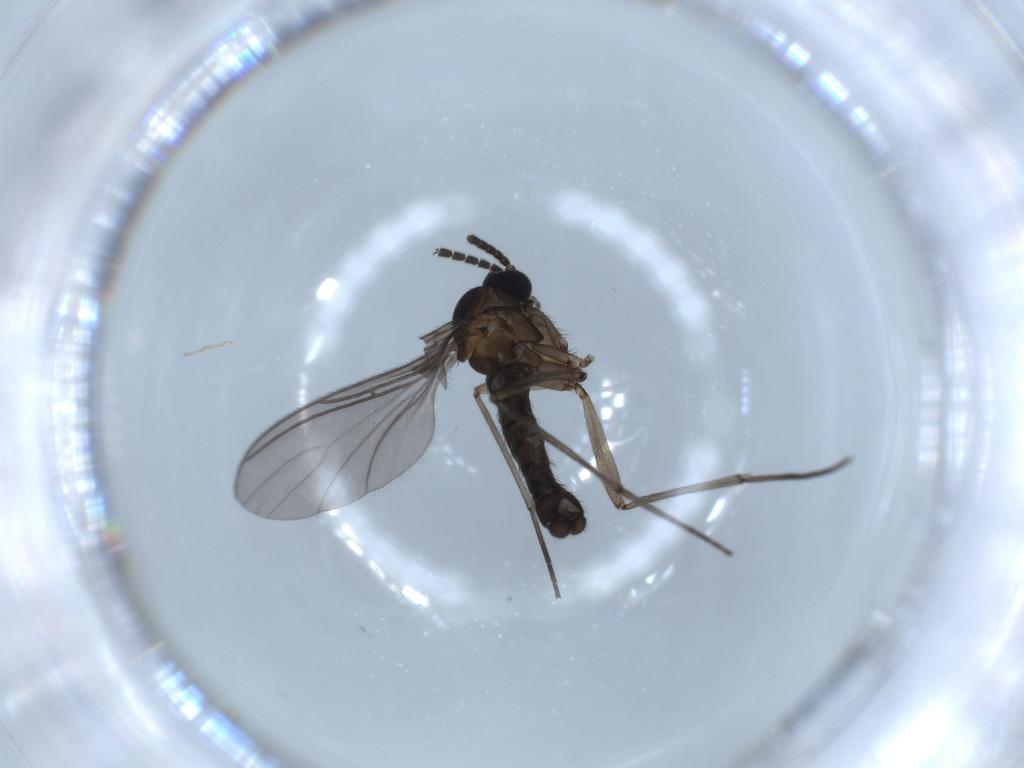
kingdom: Animalia
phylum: Arthropoda
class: Insecta
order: Diptera
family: Sciaridae
